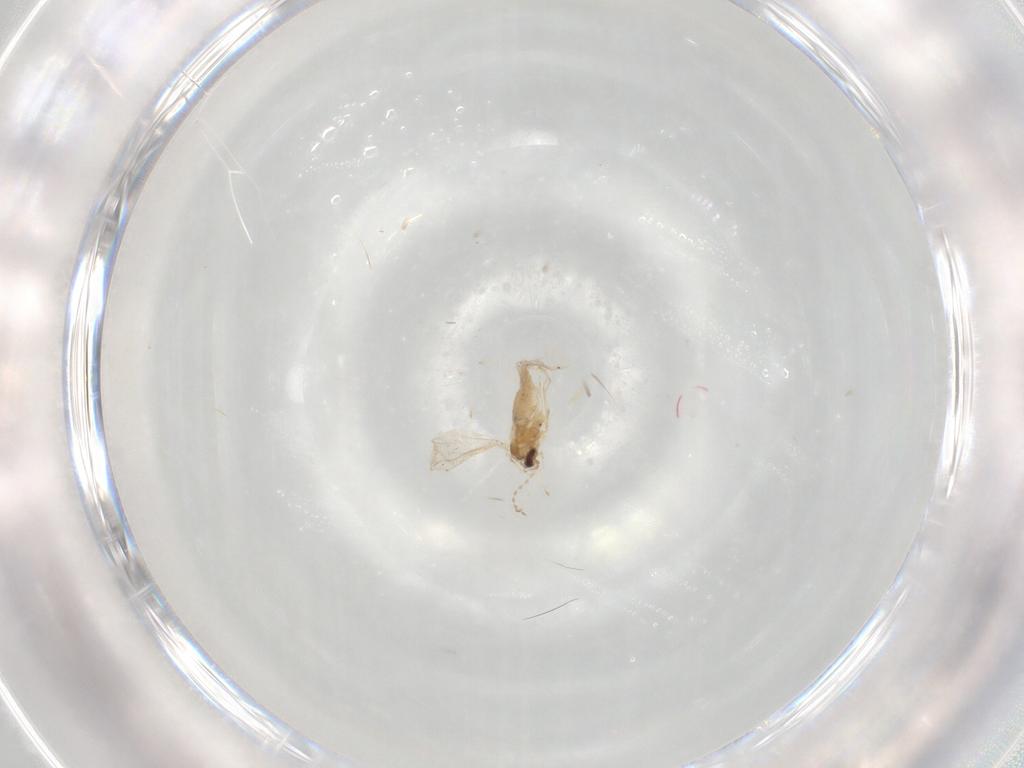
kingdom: Animalia
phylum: Arthropoda
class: Insecta
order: Diptera
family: Cecidomyiidae
